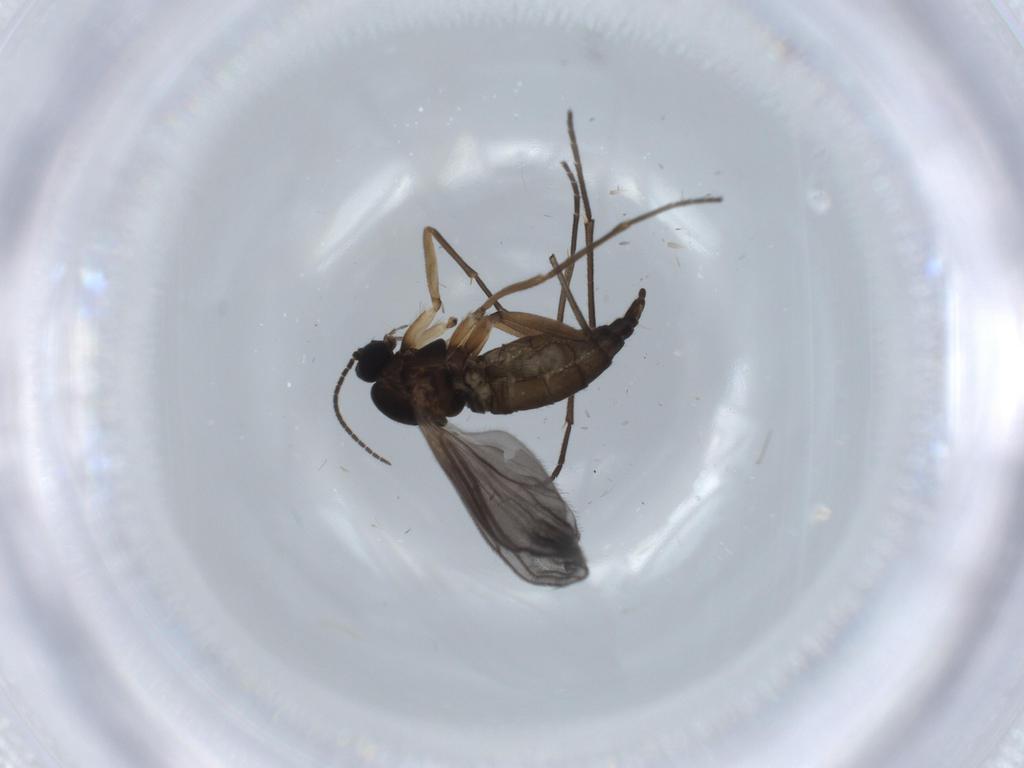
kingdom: Animalia
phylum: Arthropoda
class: Insecta
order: Diptera
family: Sciaridae
